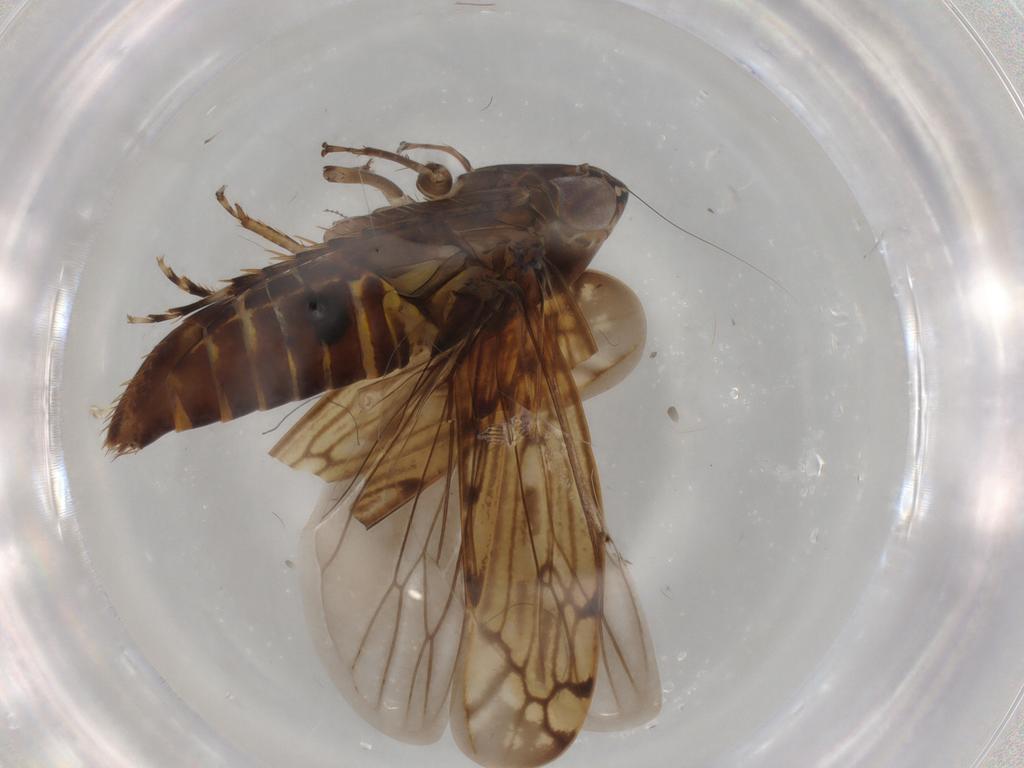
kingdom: Animalia
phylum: Arthropoda
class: Insecta
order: Hemiptera
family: Cicadellidae
